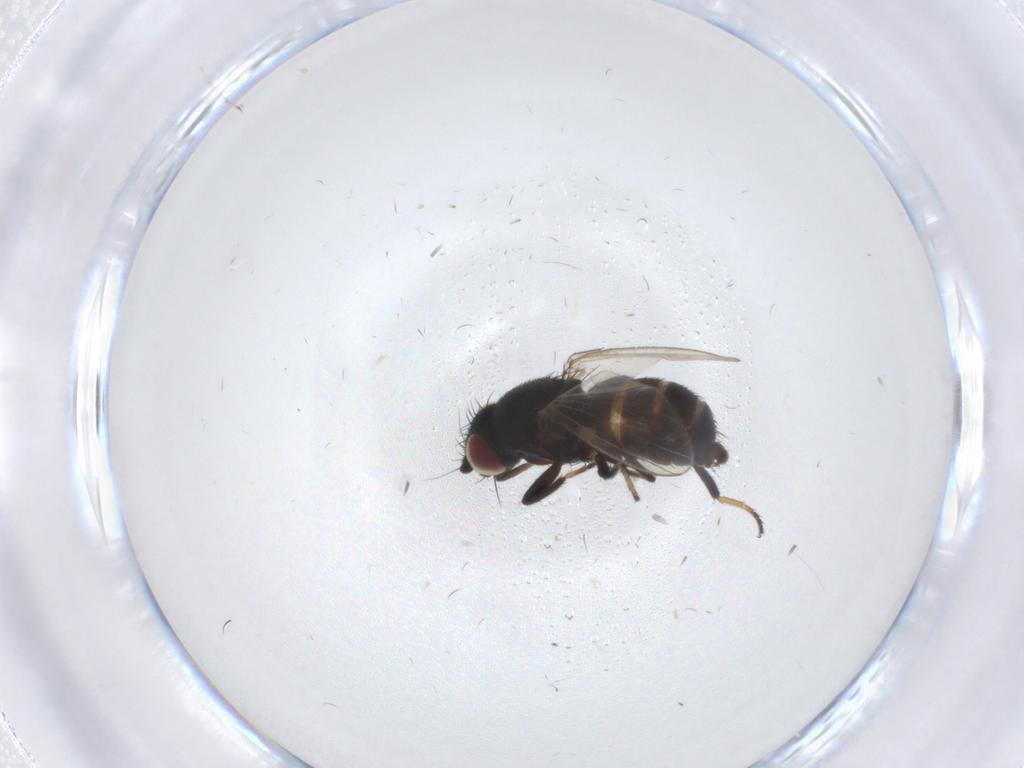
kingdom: Animalia
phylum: Arthropoda
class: Insecta
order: Diptera
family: Milichiidae
